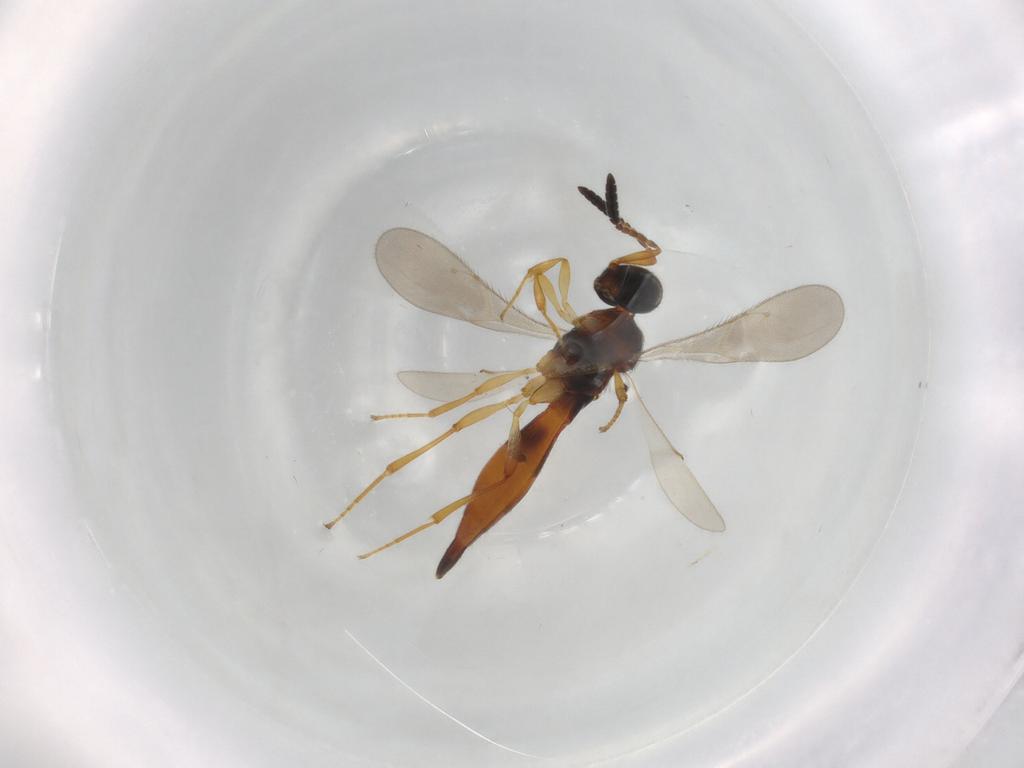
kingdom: Animalia
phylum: Arthropoda
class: Insecta
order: Hymenoptera
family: Scelionidae
